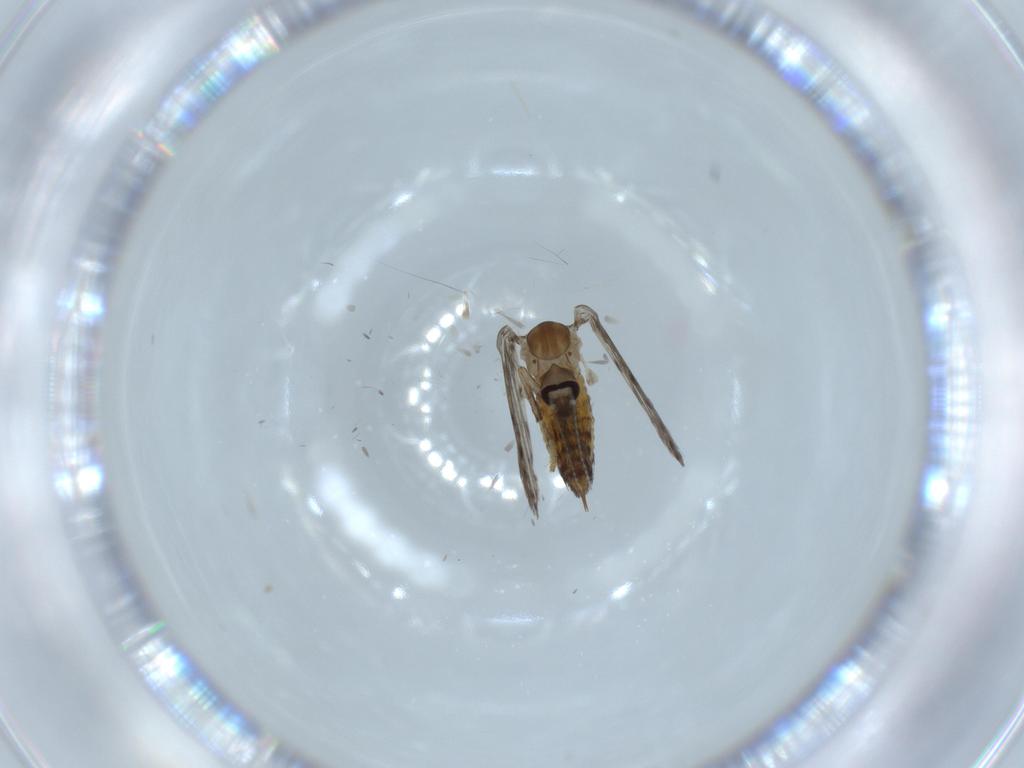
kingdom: Animalia
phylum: Arthropoda
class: Insecta
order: Diptera
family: Psychodidae
